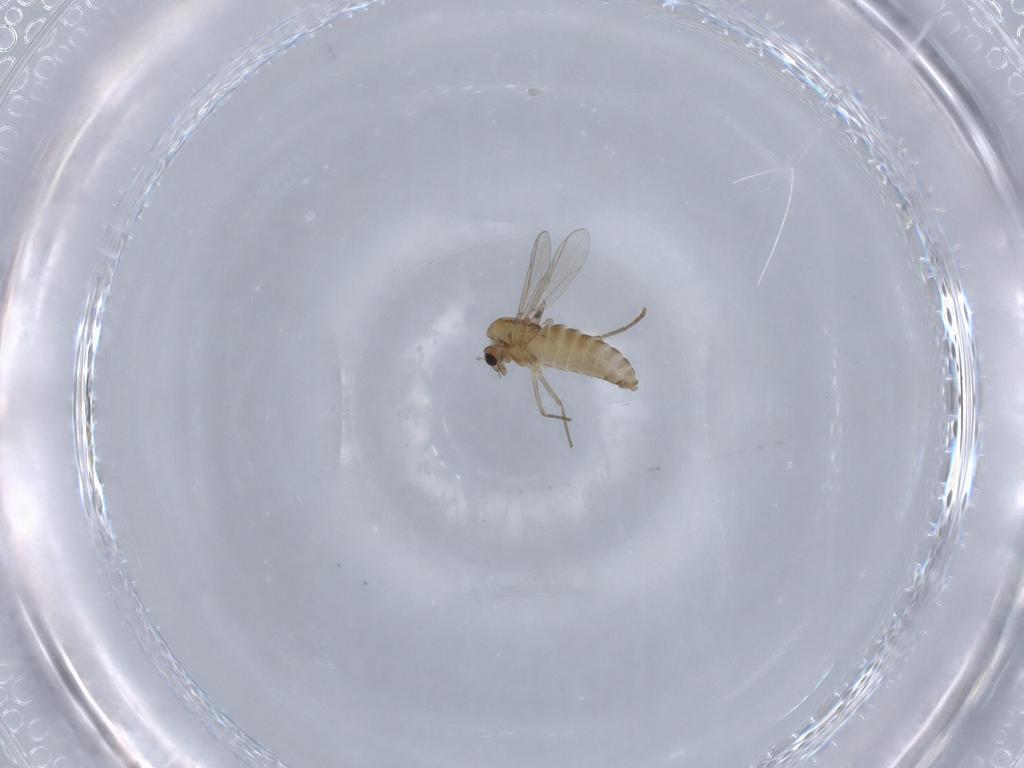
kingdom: Animalia
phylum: Arthropoda
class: Insecta
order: Diptera
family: Chironomidae
